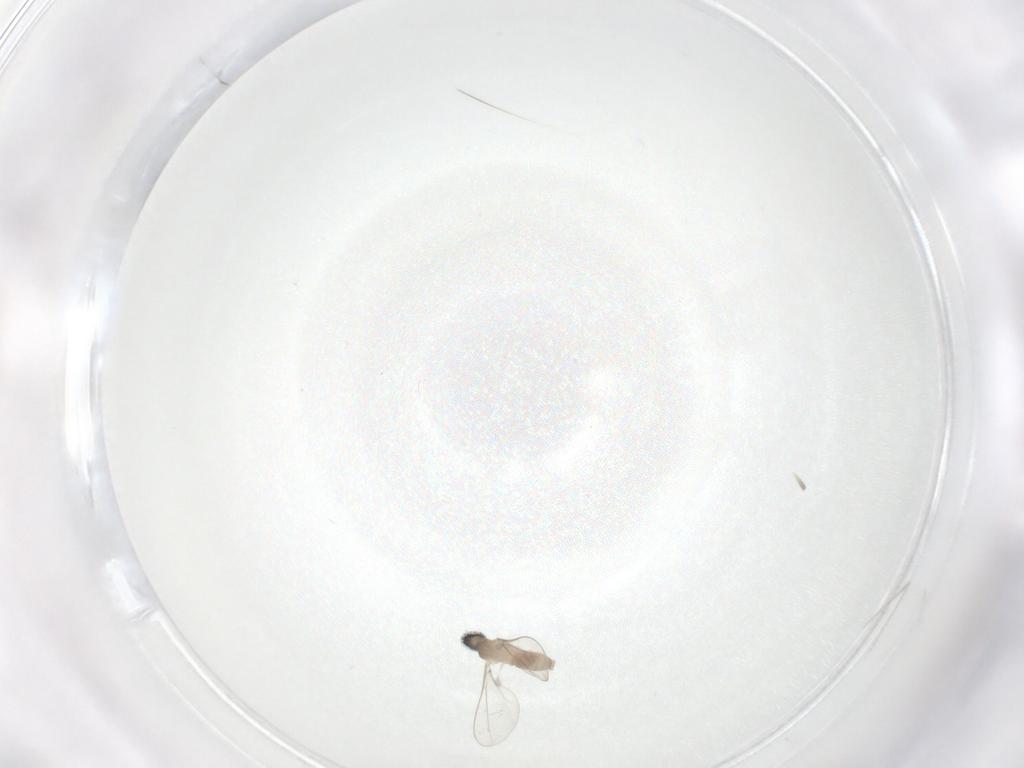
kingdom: Animalia
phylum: Arthropoda
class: Insecta
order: Diptera
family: Cecidomyiidae
